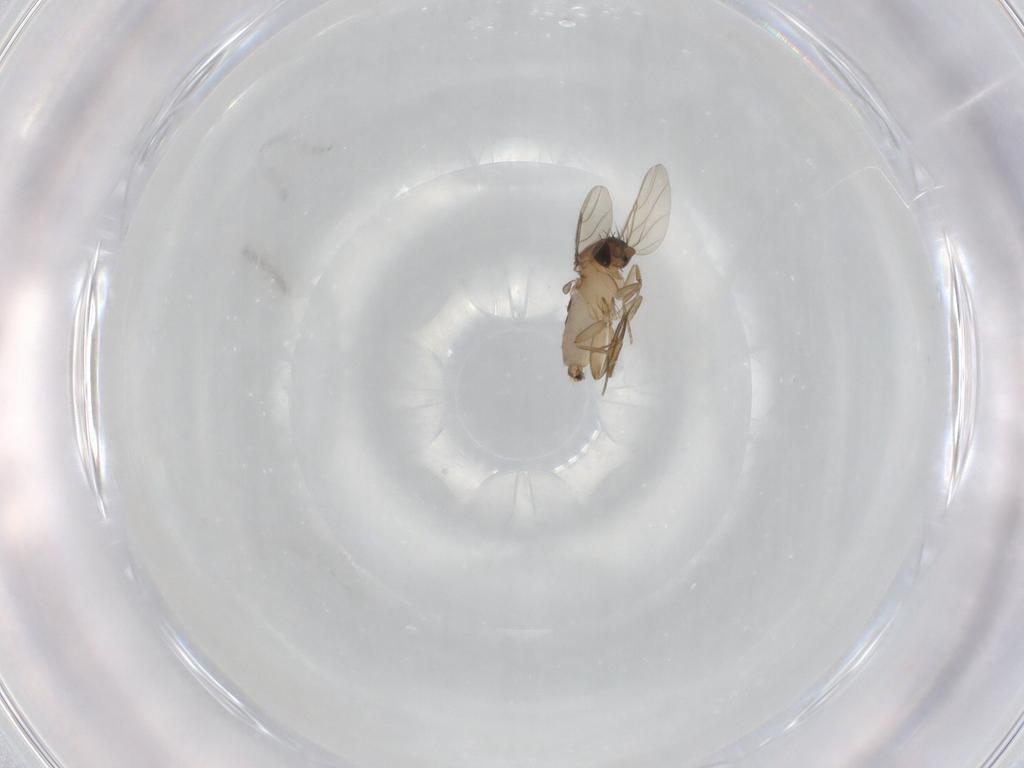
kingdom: Animalia
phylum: Arthropoda
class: Insecta
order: Diptera
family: Phoridae
